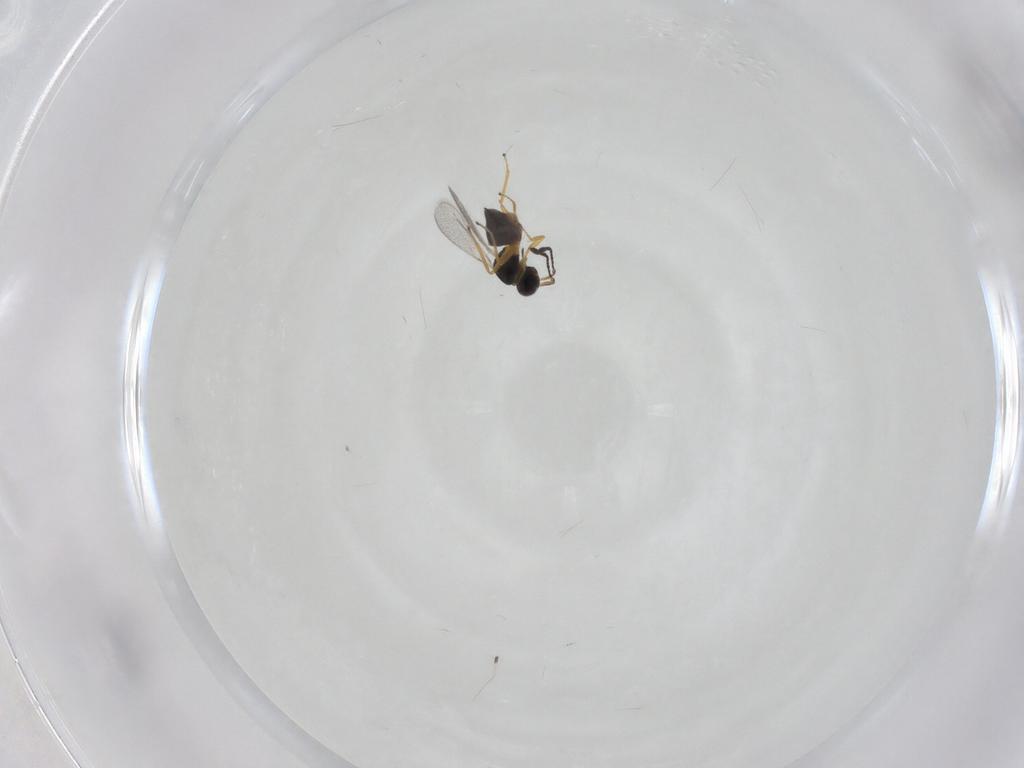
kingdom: Animalia
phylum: Arthropoda
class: Insecta
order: Hymenoptera
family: Mymaridae
